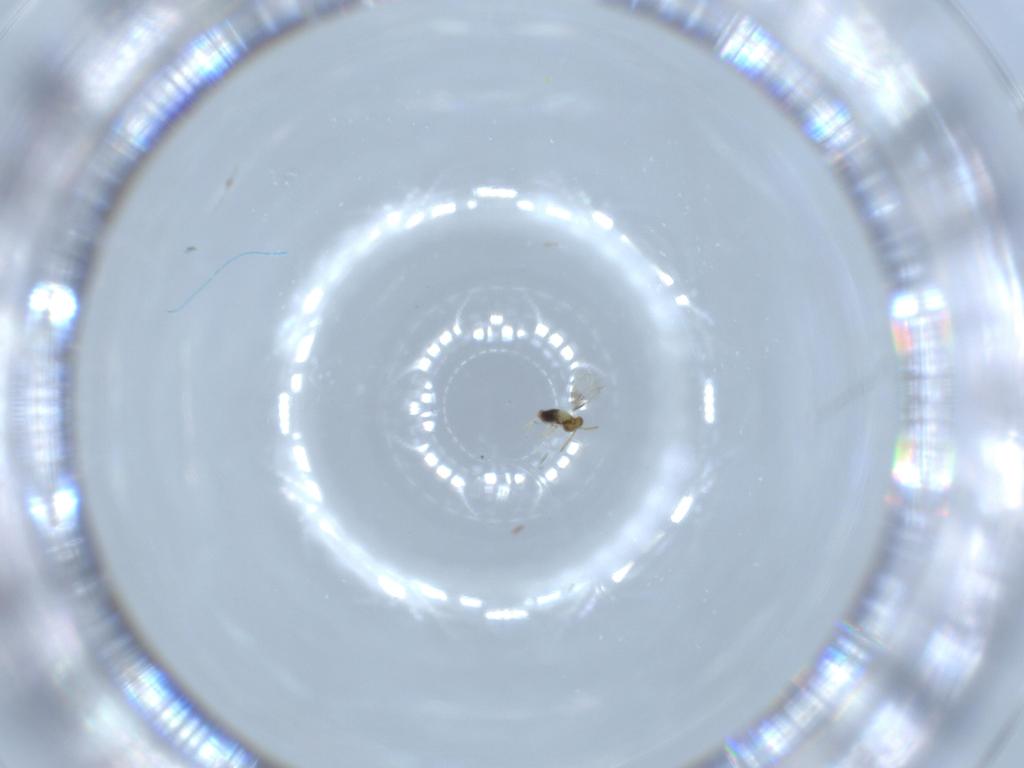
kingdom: Animalia
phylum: Arthropoda
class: Insecta
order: Hymenoptera
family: Aphelinidae
